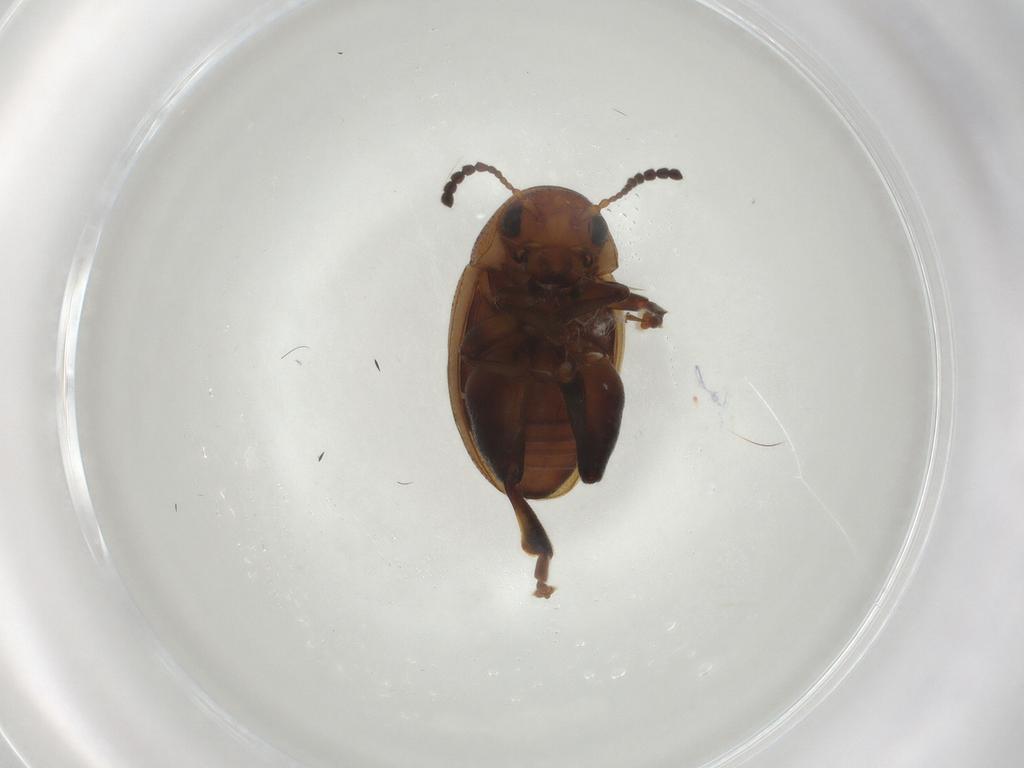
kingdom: Animalia
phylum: Arthropoda
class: Insecta
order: Coleoptera
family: Chrysomelidae
